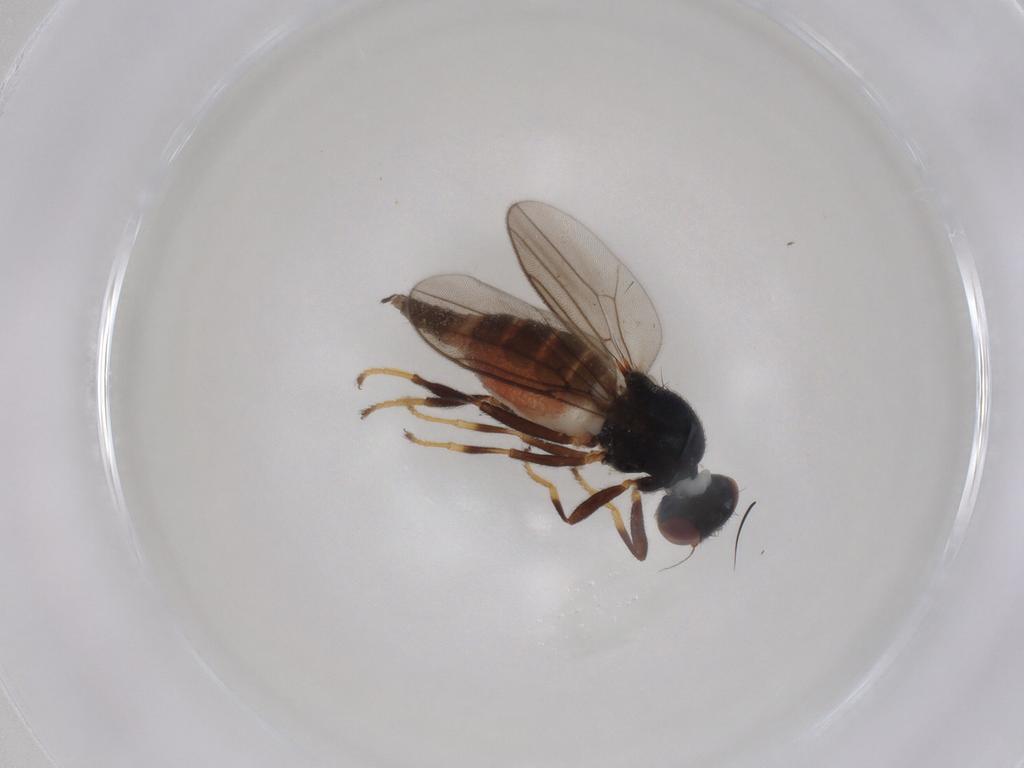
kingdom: Animalia
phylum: Arthropoda
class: Insecta
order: Diptera
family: Chloropidae
